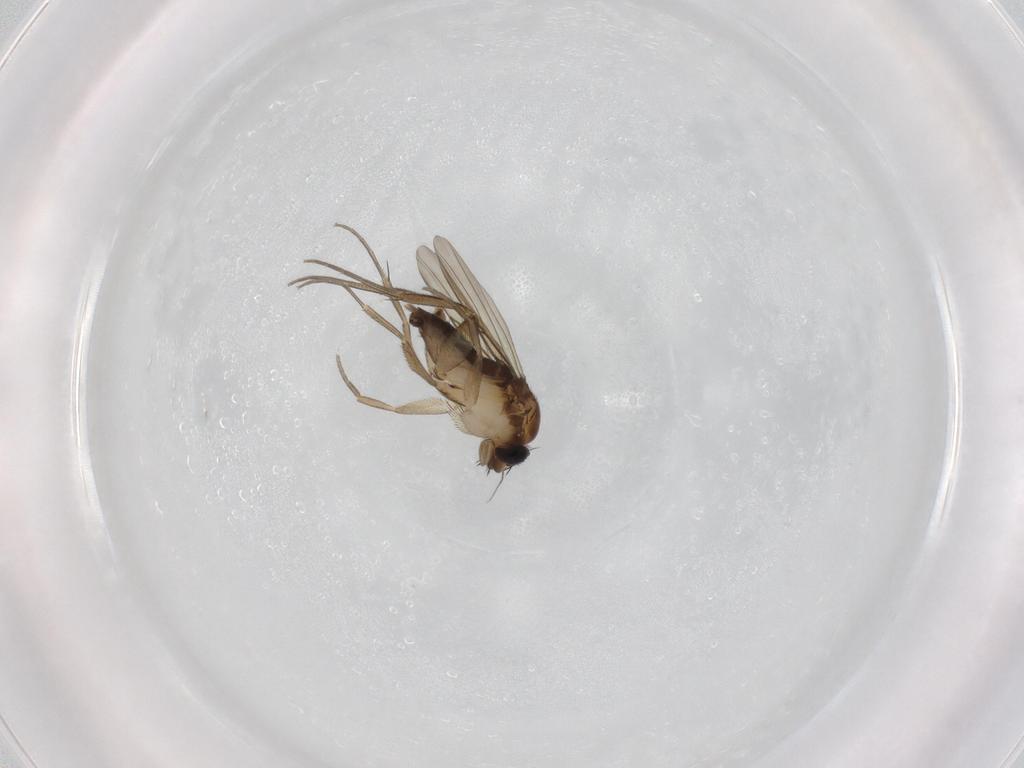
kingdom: Animalia
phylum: Arthropoda
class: Insecta
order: Diptera
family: Phoridae
